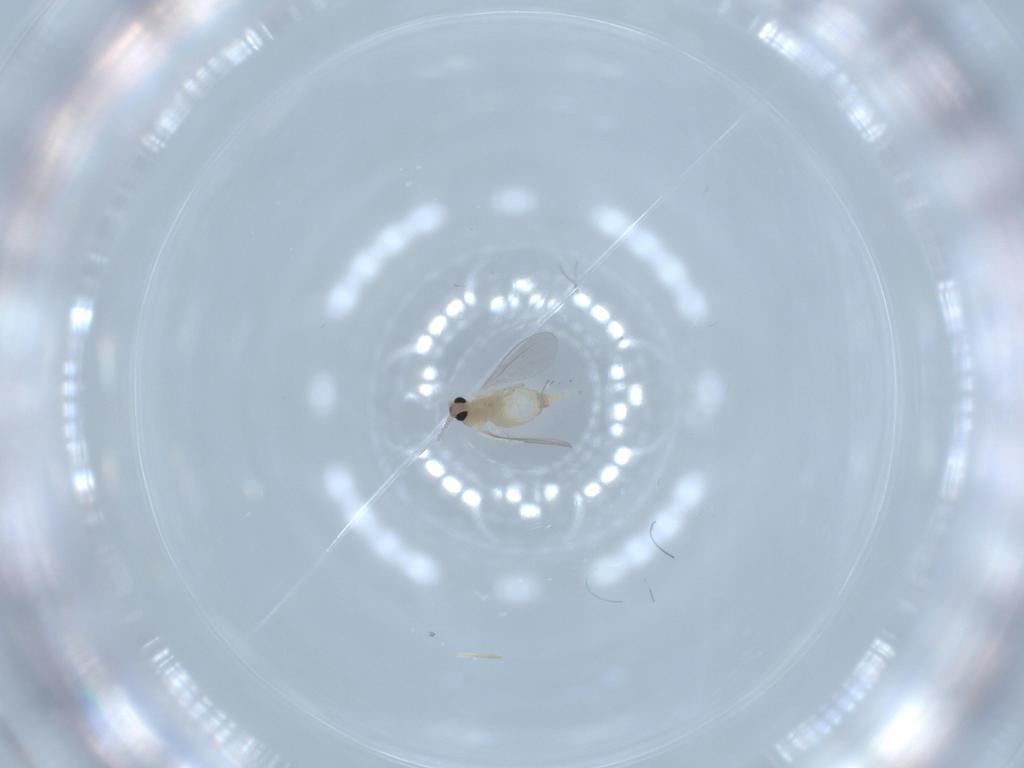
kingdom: Animalia
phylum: Arthropoda
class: Insecta
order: Diptera
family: Cecidomyiidae
